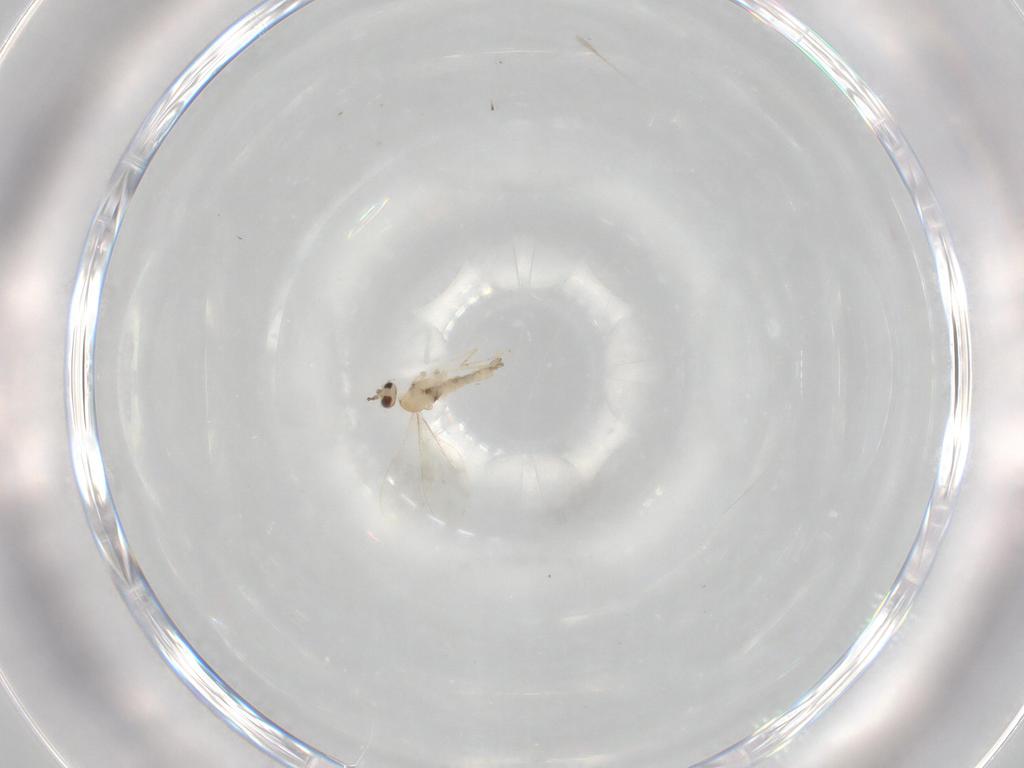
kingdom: Animalia
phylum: Arthropoda
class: Insecta
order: Diptera
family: Cecidomyiidae
